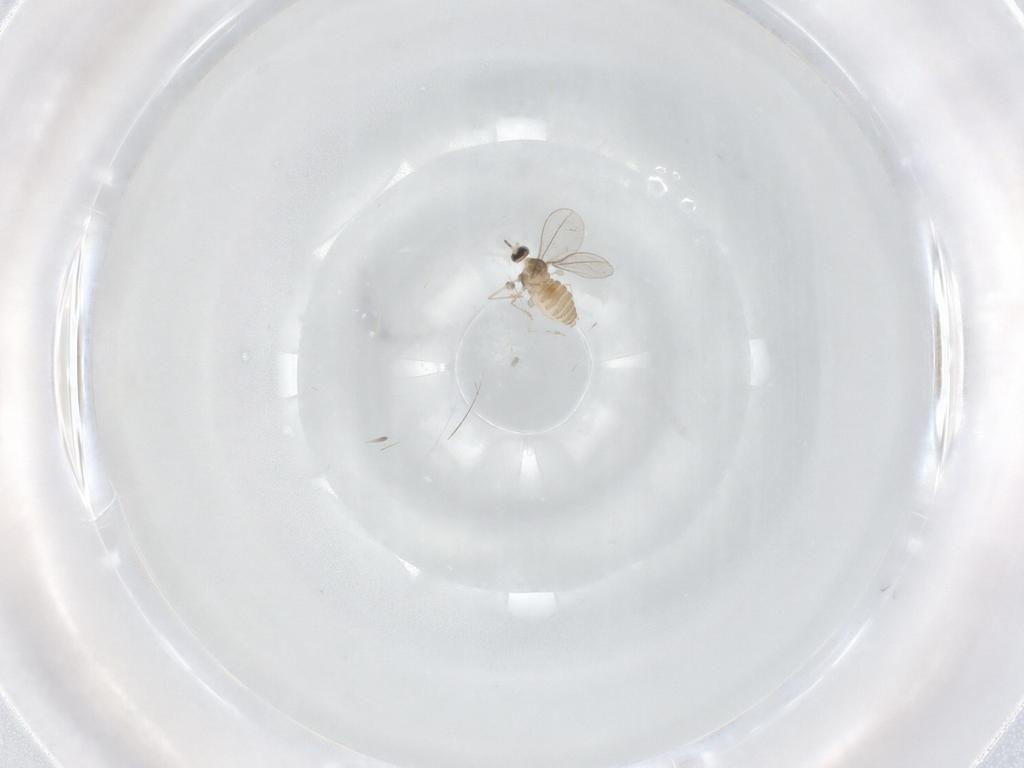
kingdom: Animalia
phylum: Arthropoda
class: Insecta
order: Diptera
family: Cecidomyiidae
